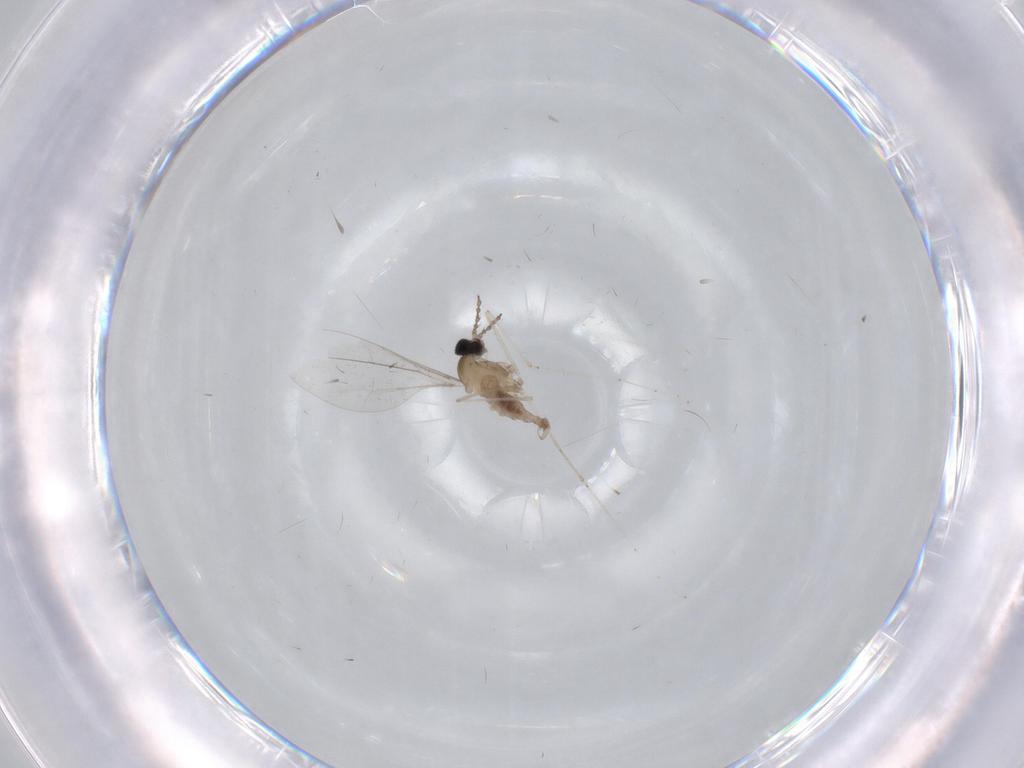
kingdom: Animalia
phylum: Arthropoda
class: Insecta
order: Diptera
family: Cecidomyiidae
